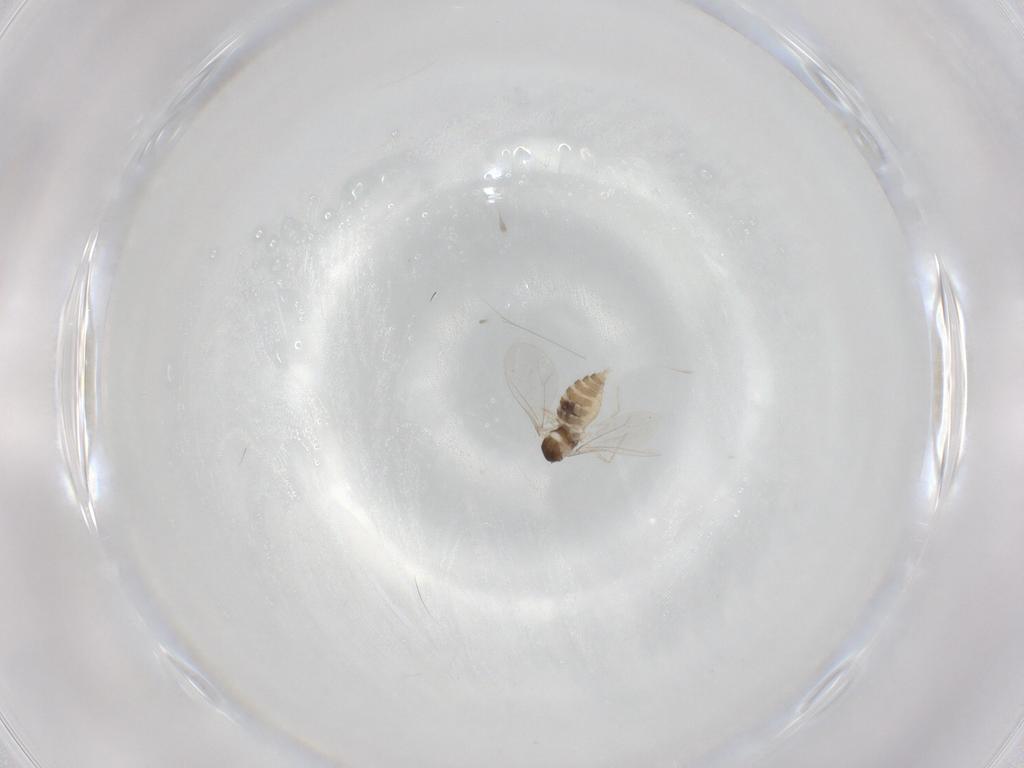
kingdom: Animalia
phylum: Arthropoda
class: Insecta
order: Diptera
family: Cecidomyiidae
